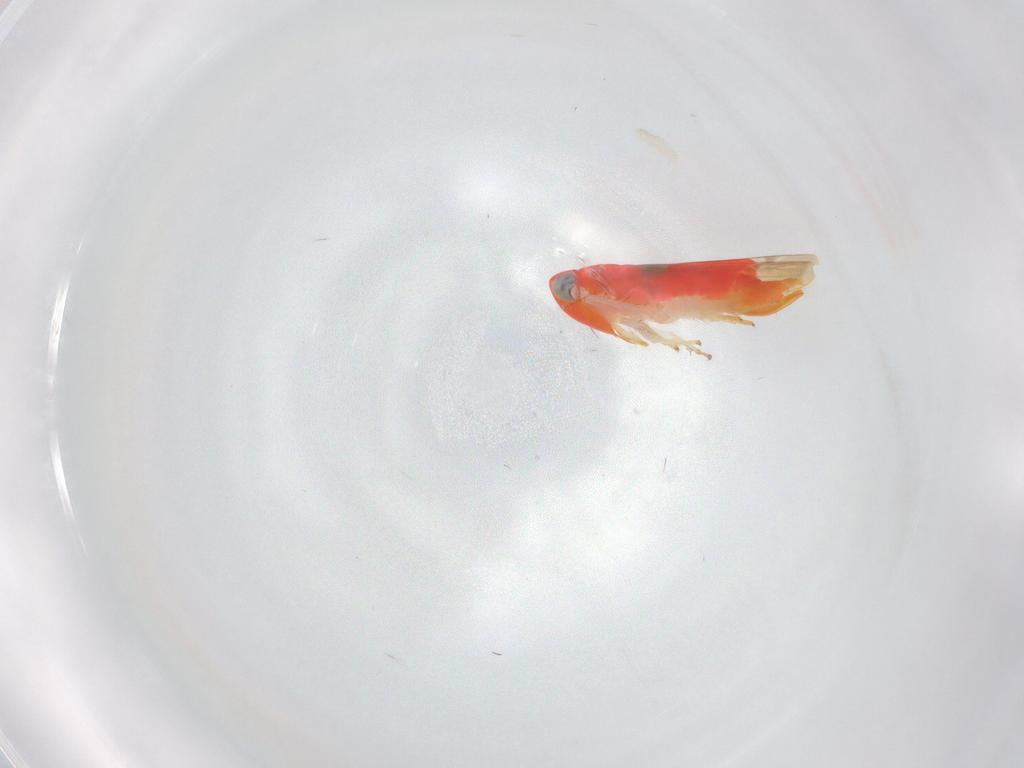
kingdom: Animalia
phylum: Arthropoda
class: Insecta
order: Hemiptera
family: Cicadellidae
